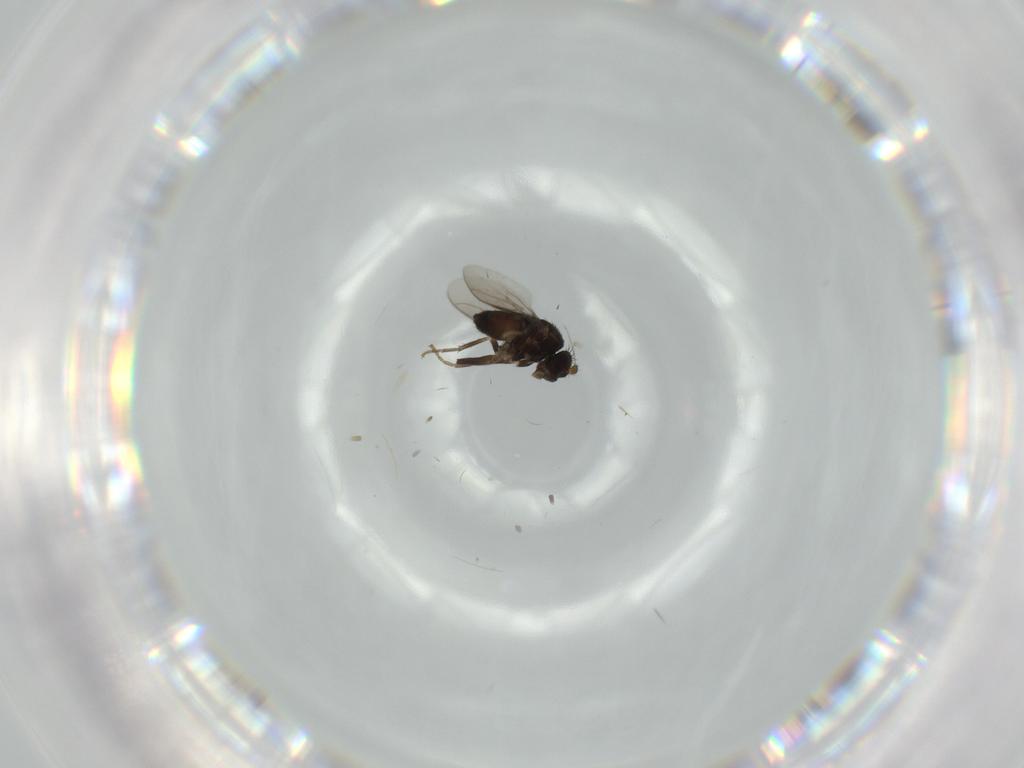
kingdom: Animalia
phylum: Arthropoda
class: Insecta
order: Diptera
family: Sphaeroceridae
